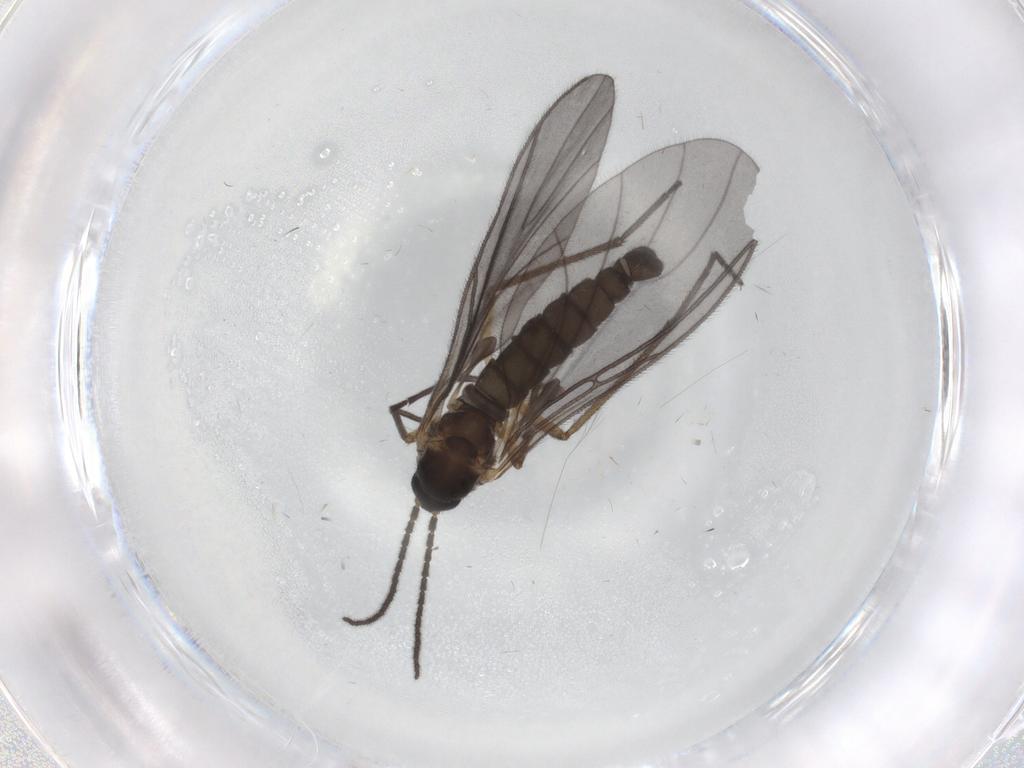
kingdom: Animalia
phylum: Arthropoda
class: Insecta
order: Diptera
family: Sciaridae
